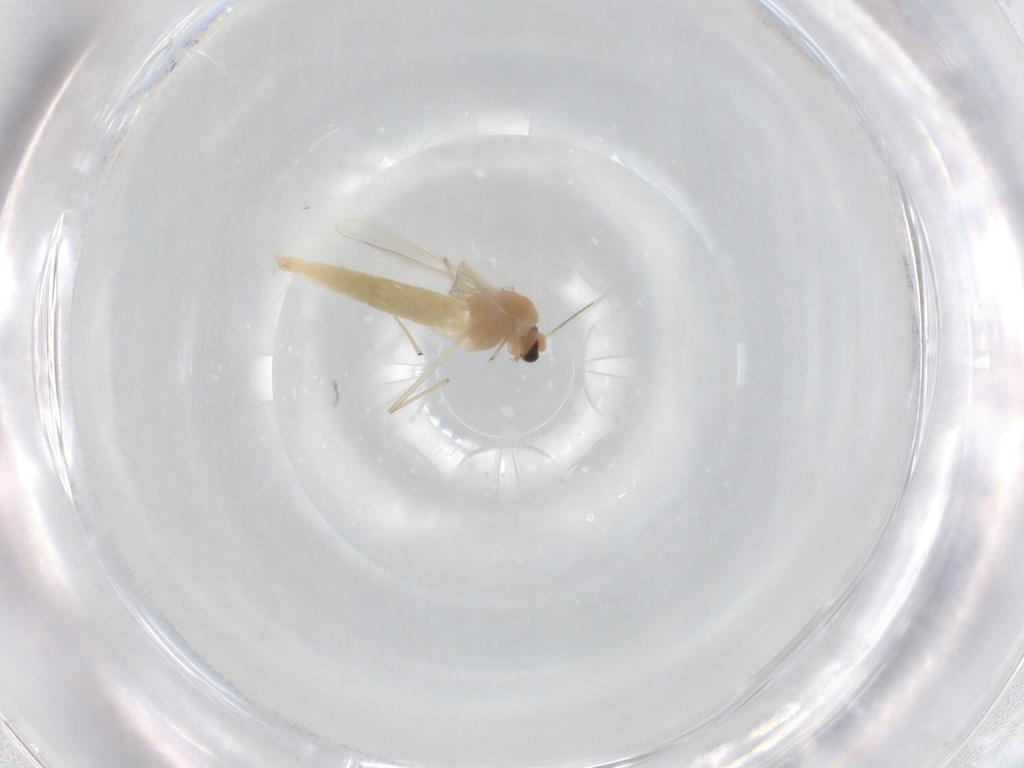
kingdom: Animalia
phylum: Arthropoda
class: Insecta
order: Diptera
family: Chironomidae
